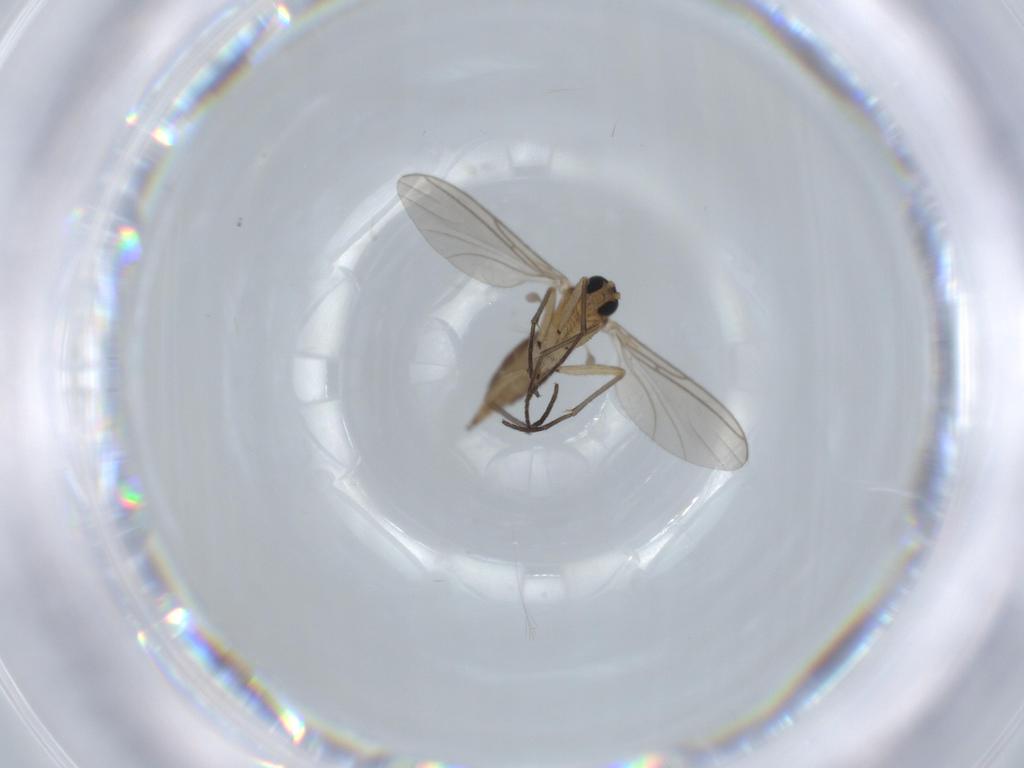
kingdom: Animalia
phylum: Arthropoda
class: Insecta
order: Diptera
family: Sciaridae
